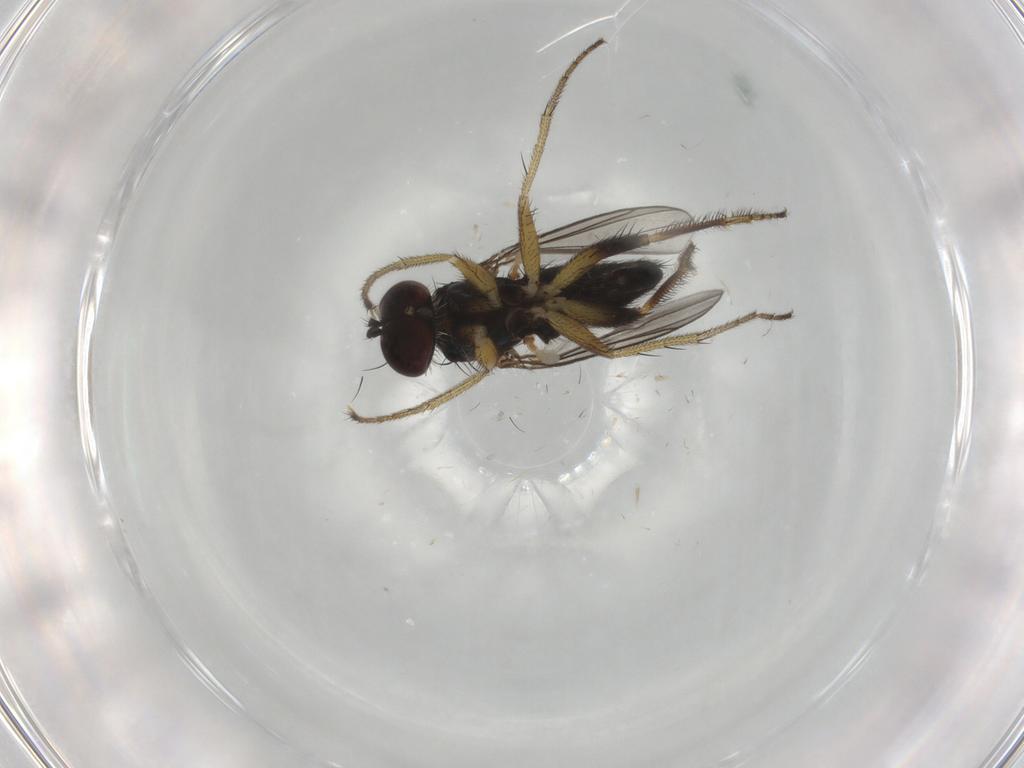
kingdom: Animalia
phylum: Arthropoda
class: Insecta
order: Diptera
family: Dolichopodidae
